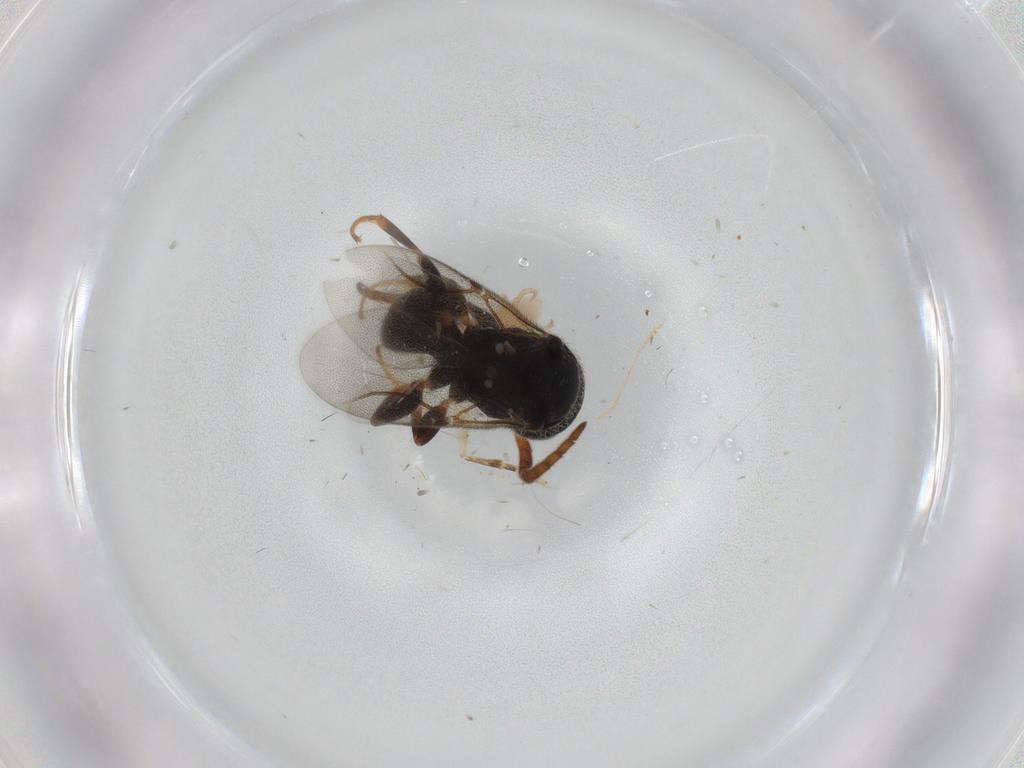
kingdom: Animalia
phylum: Arthropoda
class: Insecta
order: Hymenoptera
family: Bethylidae
